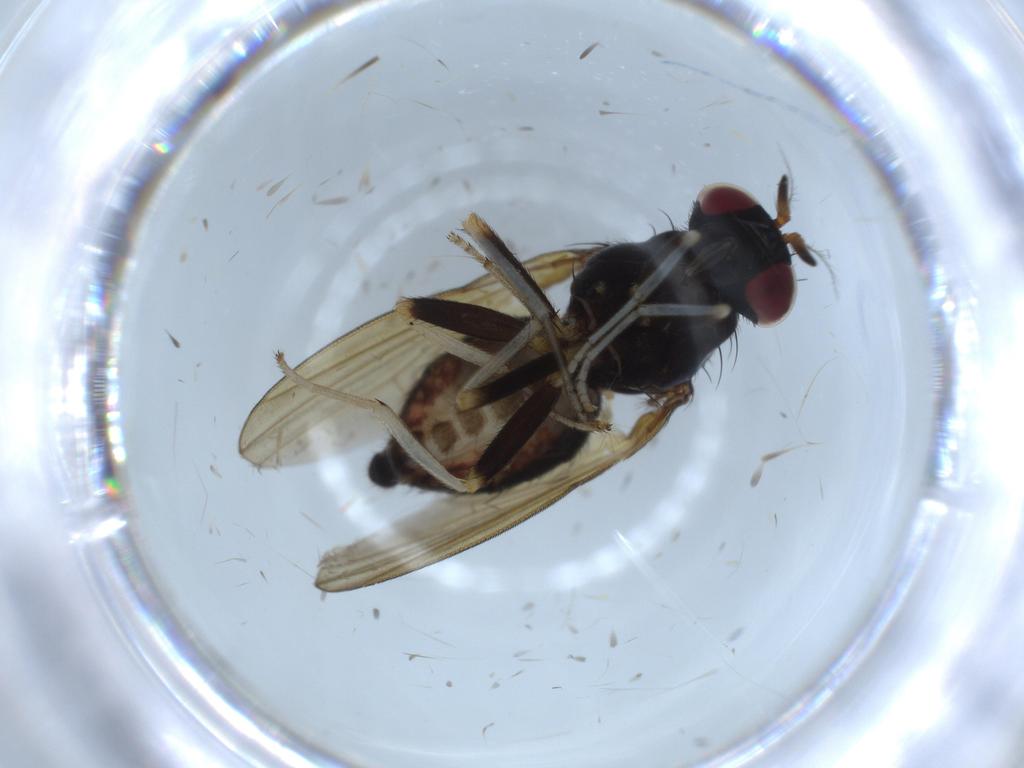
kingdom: Animalia
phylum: Arthropoda
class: Insecta
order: Diptera
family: Lauxaniidae
